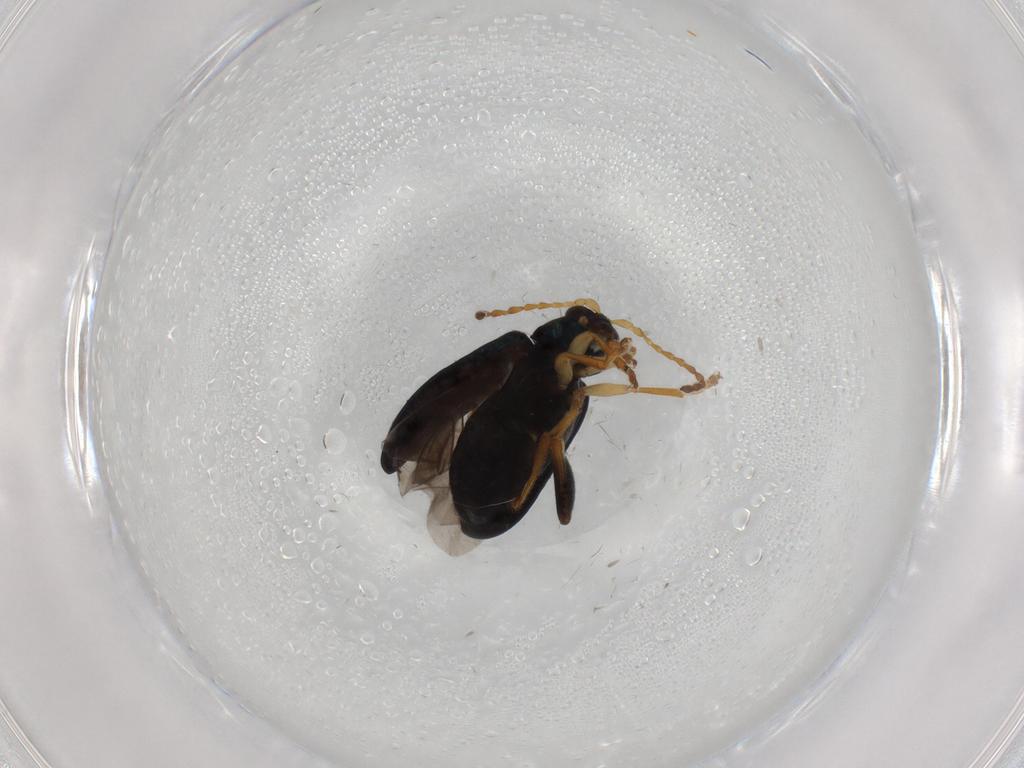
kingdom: Animalia
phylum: Arthropoda
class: Insecta
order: Coleoptera
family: Chrysomelidae
